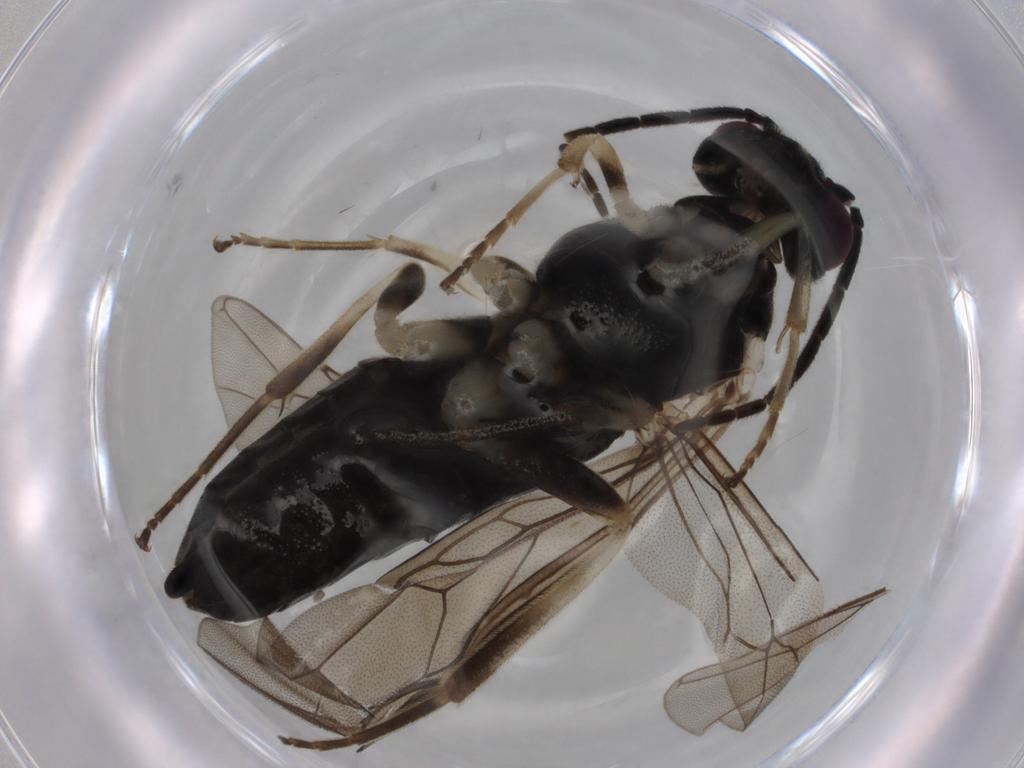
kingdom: Animalia
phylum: Arthropoda
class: Insecta
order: Hymenoptera
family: Tenthredinidae
